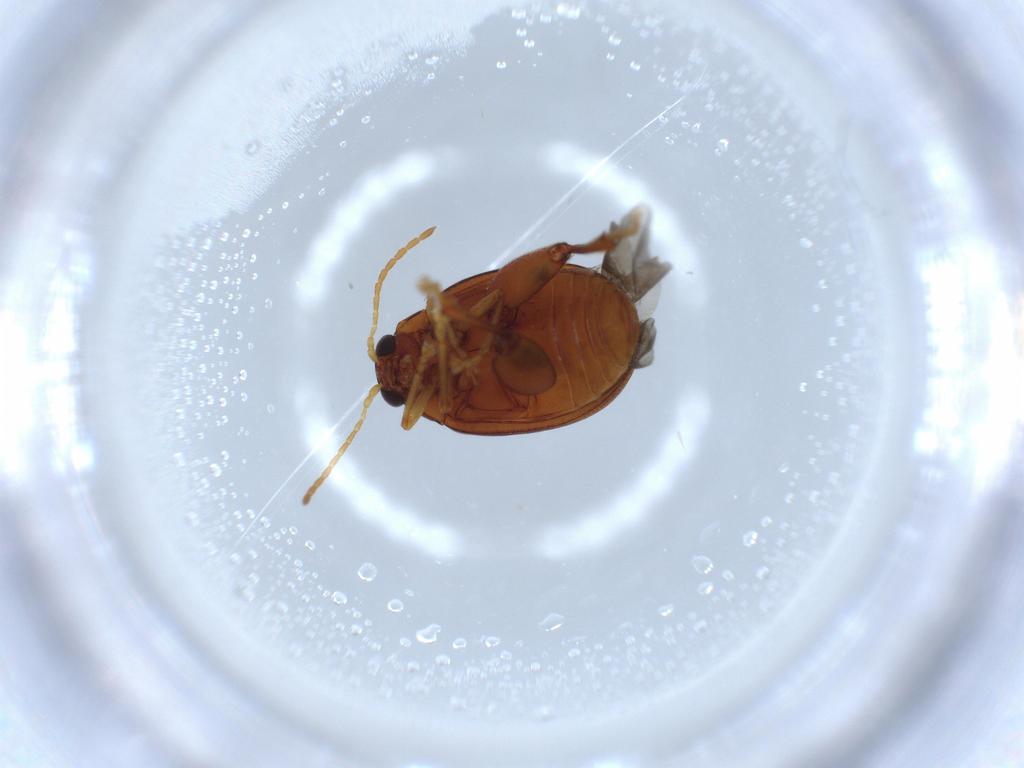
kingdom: Animalia
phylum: Arthropoda
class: Insecta
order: Coleoptera
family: Chrysomelidae
